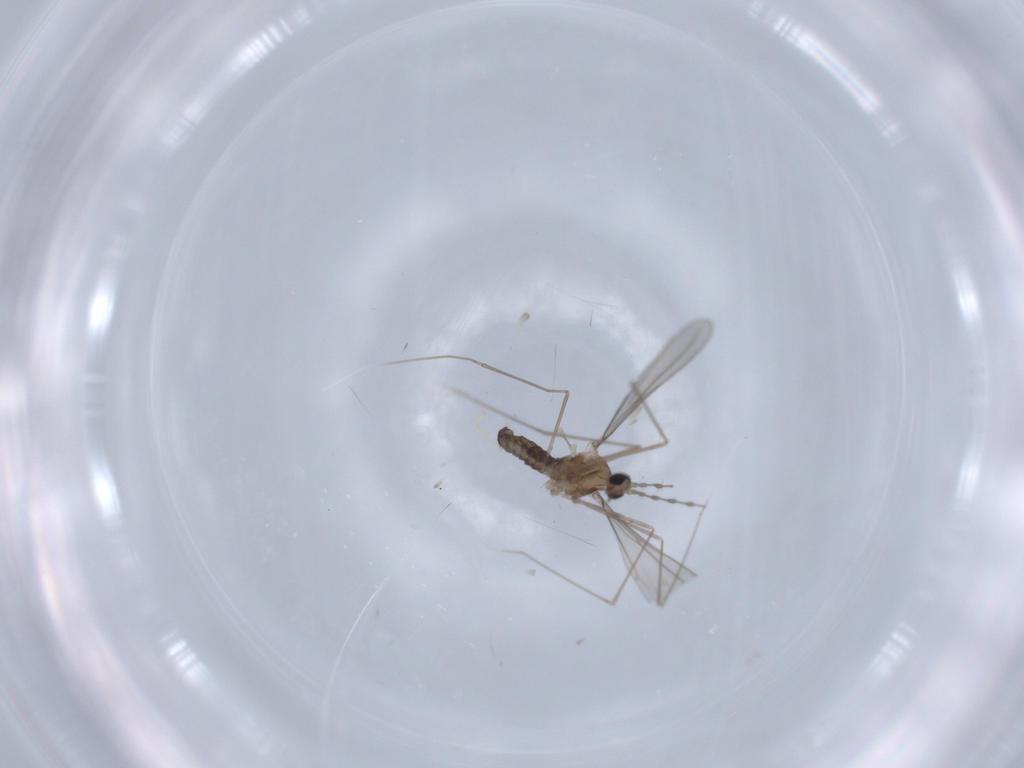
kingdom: Animalia
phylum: Arthropoda
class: Insecta
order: Diptera
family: Cecidomyiidae
